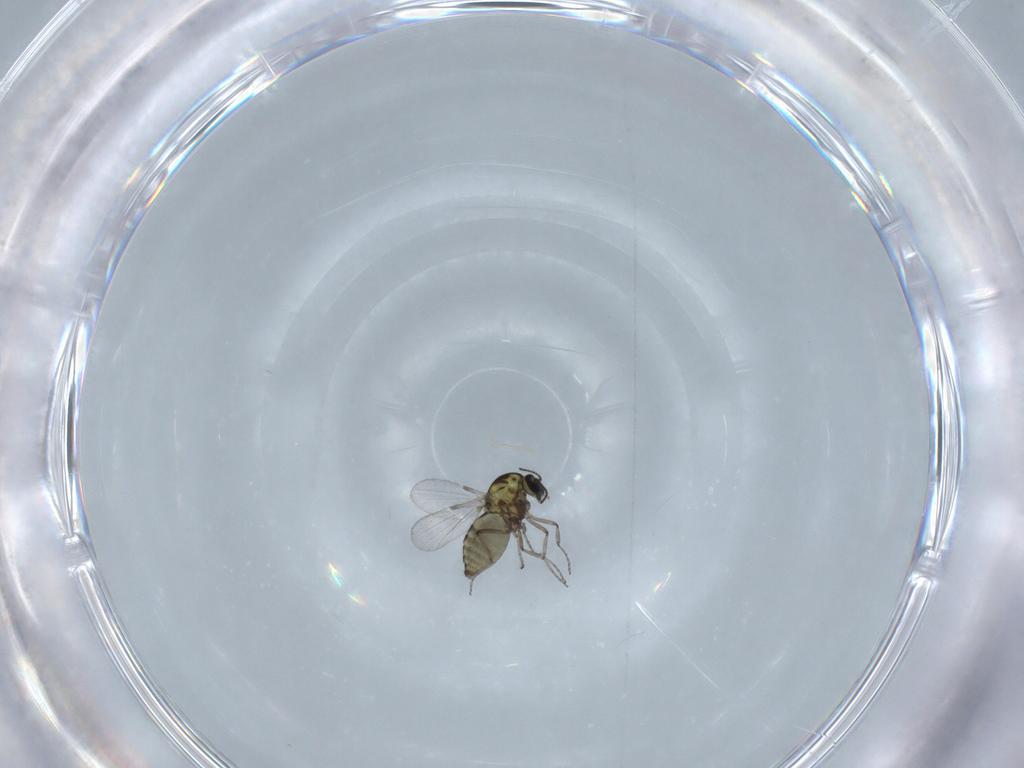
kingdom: Animalia
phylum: Arthropoda
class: Insecta
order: Diptera
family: Ceratopogonidae
